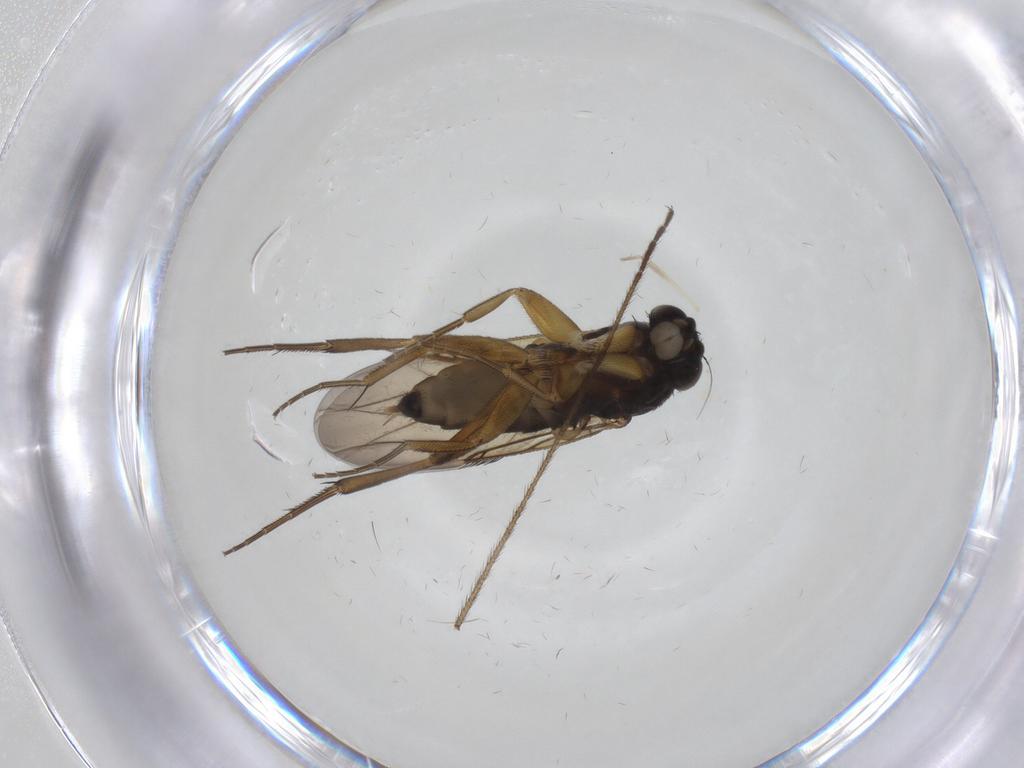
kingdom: Animalia
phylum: Arthropoda
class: Insecta
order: Diptera
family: Phoridae
